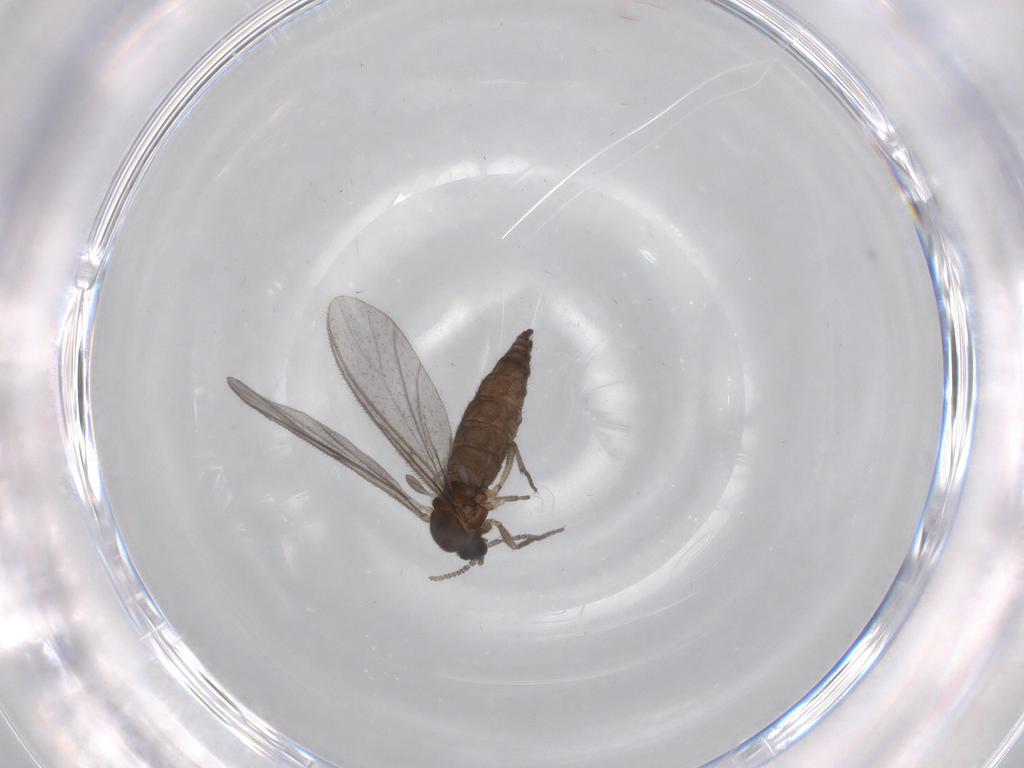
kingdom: Animalia
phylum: Arthropoda
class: Insecta
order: Diptera
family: Sciaridae
